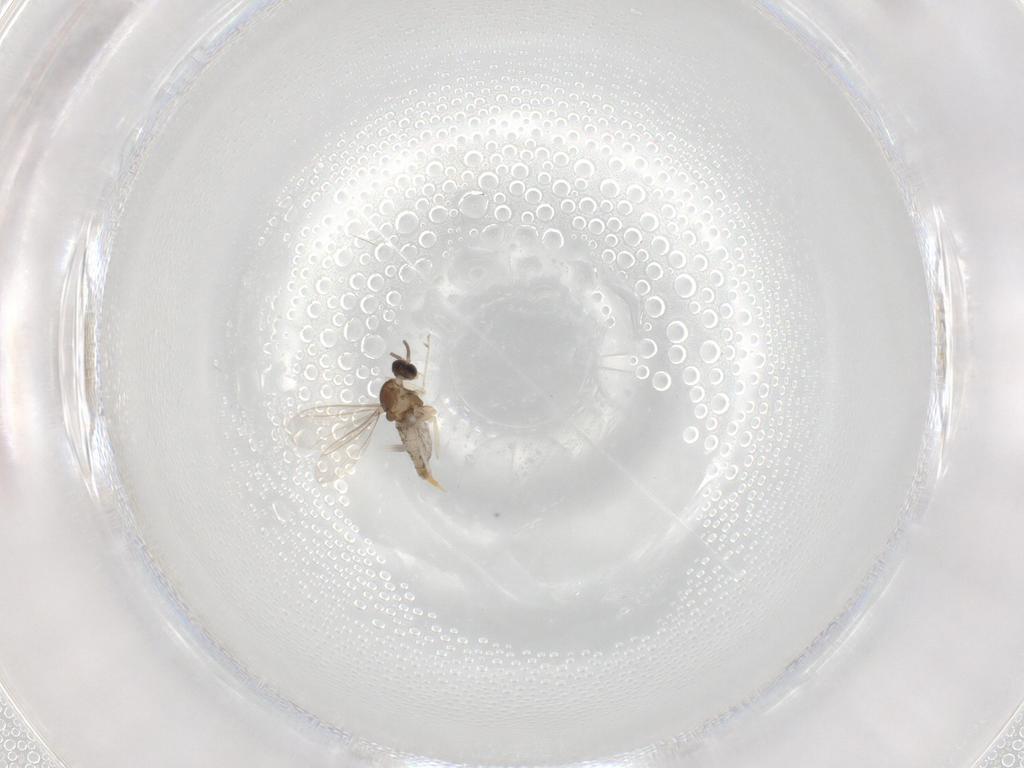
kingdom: Animalia
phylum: Arthropoda
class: Insecta
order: Diptera
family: Cecidomyiidae
